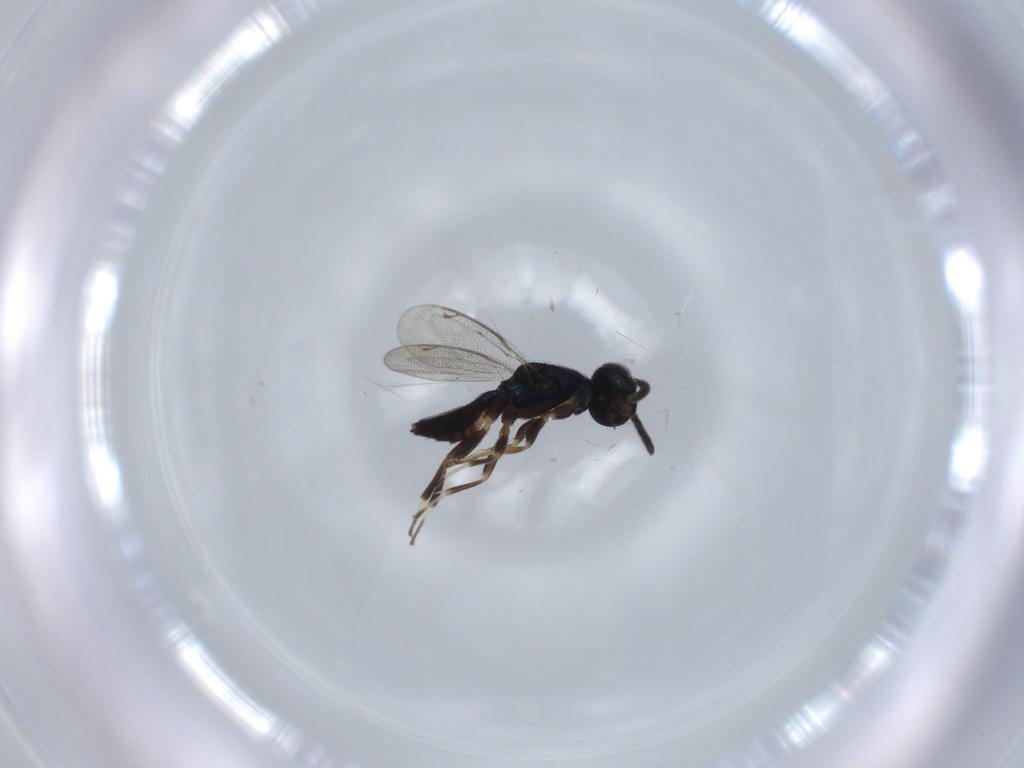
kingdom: Animalia
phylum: Arthropoda
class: Insecta
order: Hymenoptera
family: Eupelmidae
